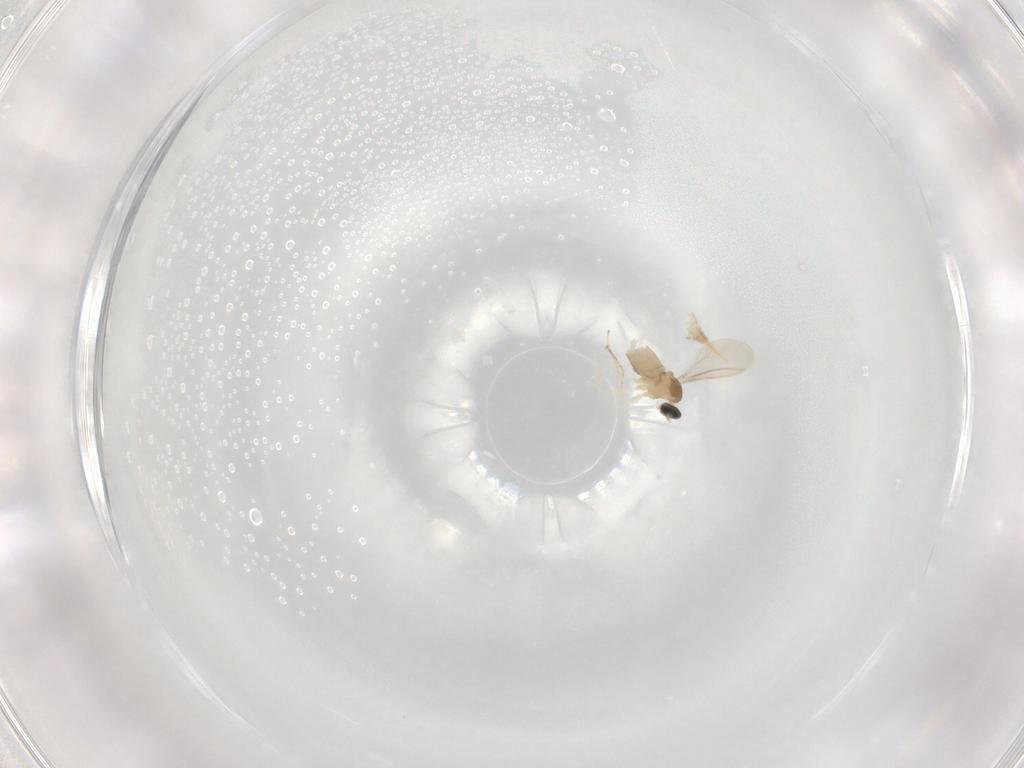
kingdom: Animalia
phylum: Arthropoda
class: Insecta
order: Diptera
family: Cecidomyiidae
